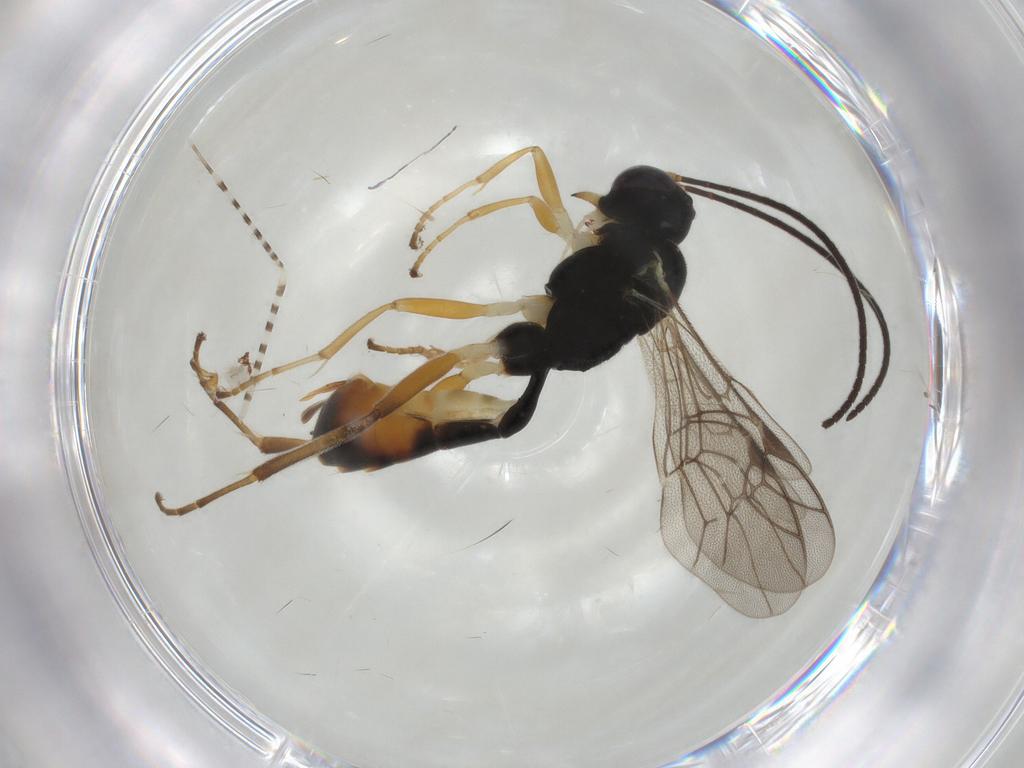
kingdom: Animalia
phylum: Arthropoda
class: Insecta
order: Hymenoptera
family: Ichneumonidae
